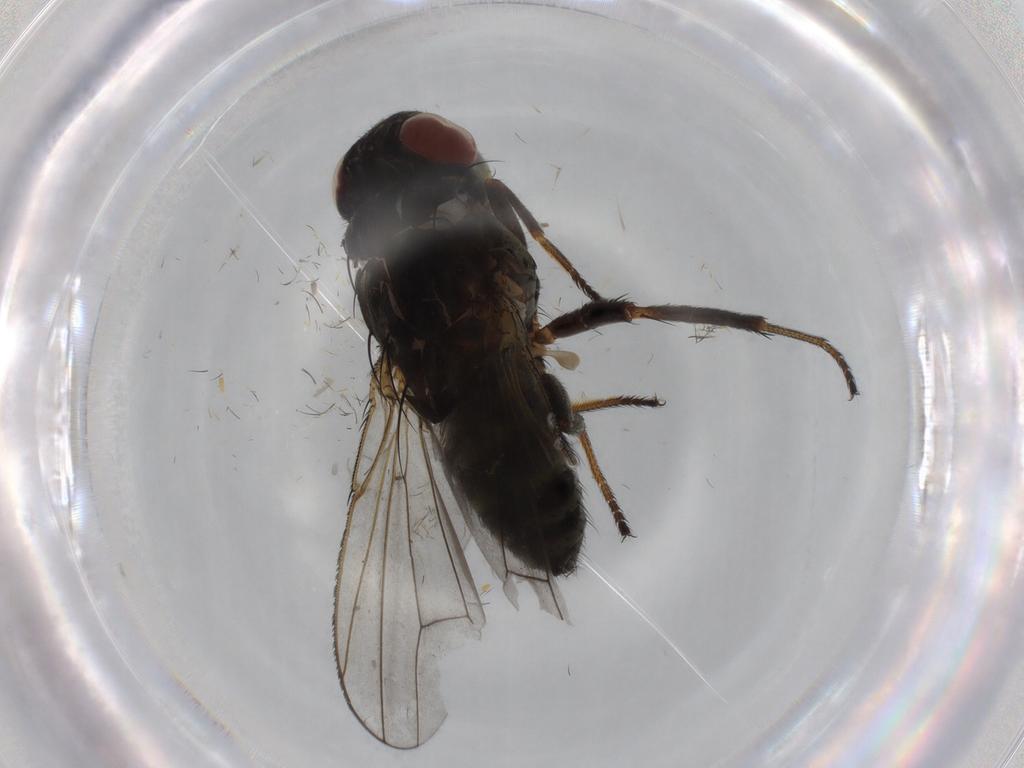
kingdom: Animalia
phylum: Arthropoda
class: Insecta
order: Diptera
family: Ephydridae
